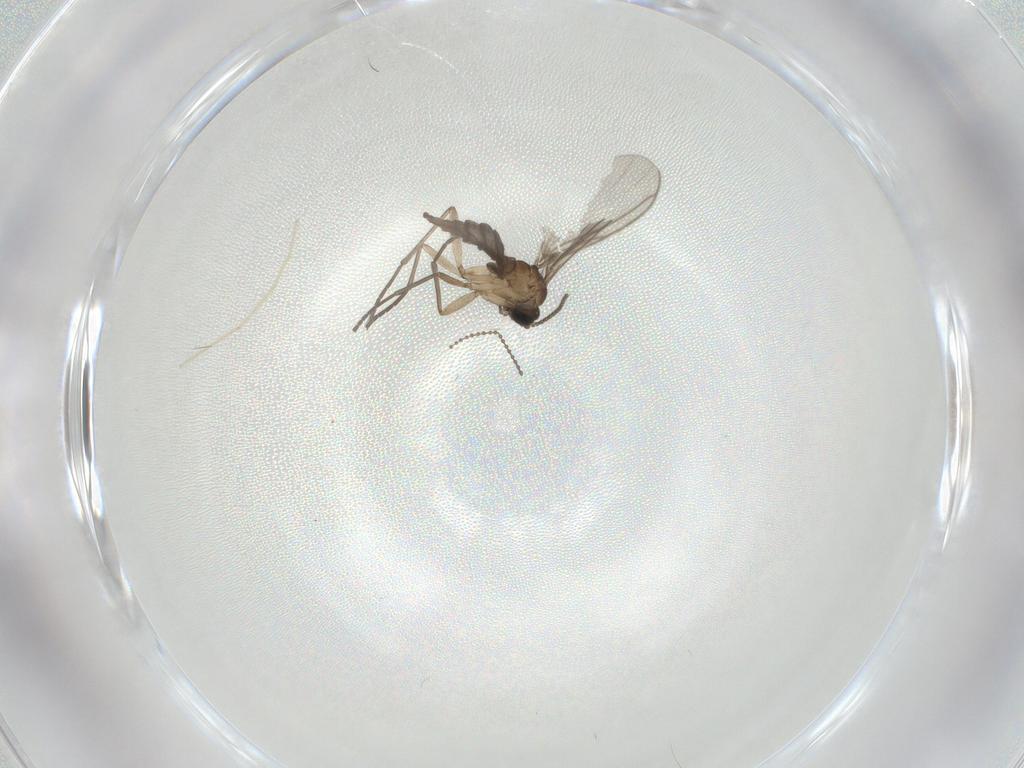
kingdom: Animalia
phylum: Arthropoda
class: Insecta
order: Diptera
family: Sciaridae
